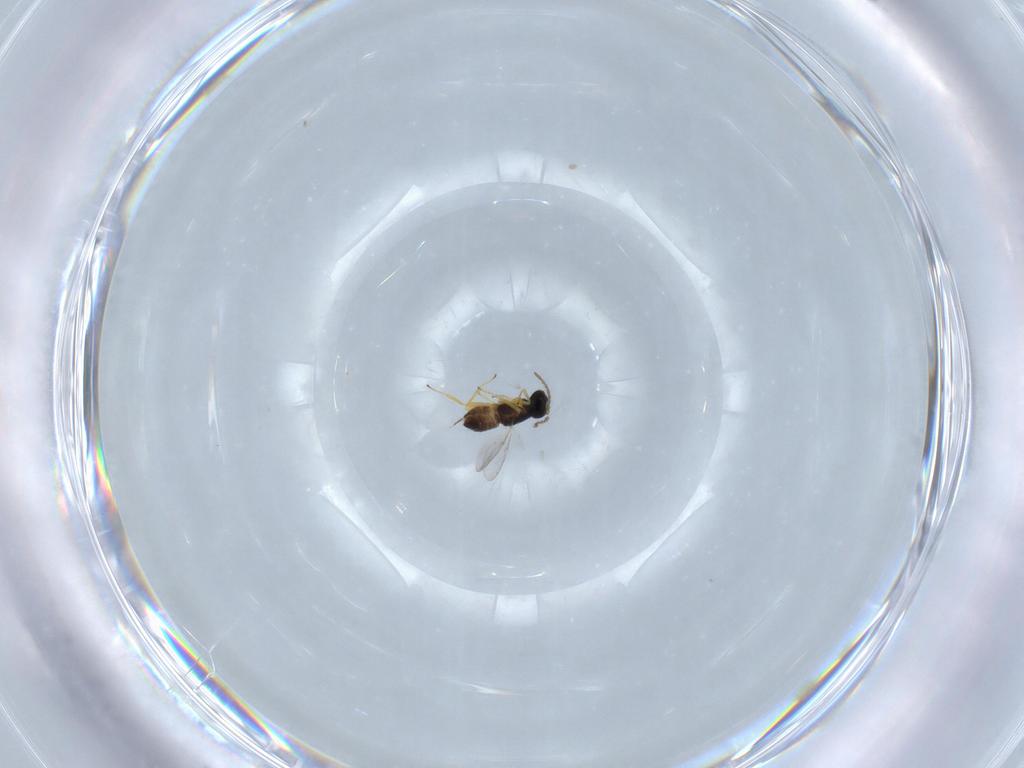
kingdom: Animalia
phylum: Arthropoda
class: Insecta
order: Hymenoptera
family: Encyrtidae
